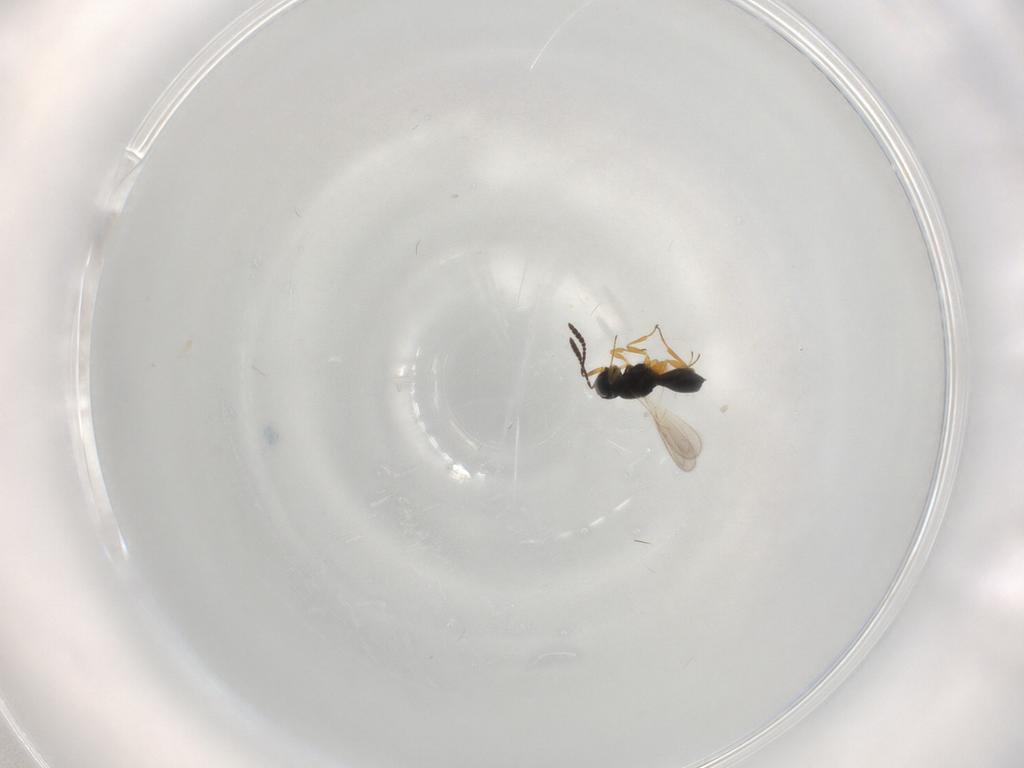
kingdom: Animalia
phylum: Arthropoda
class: Insecta
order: Hymenoptera
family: Scelionidae
